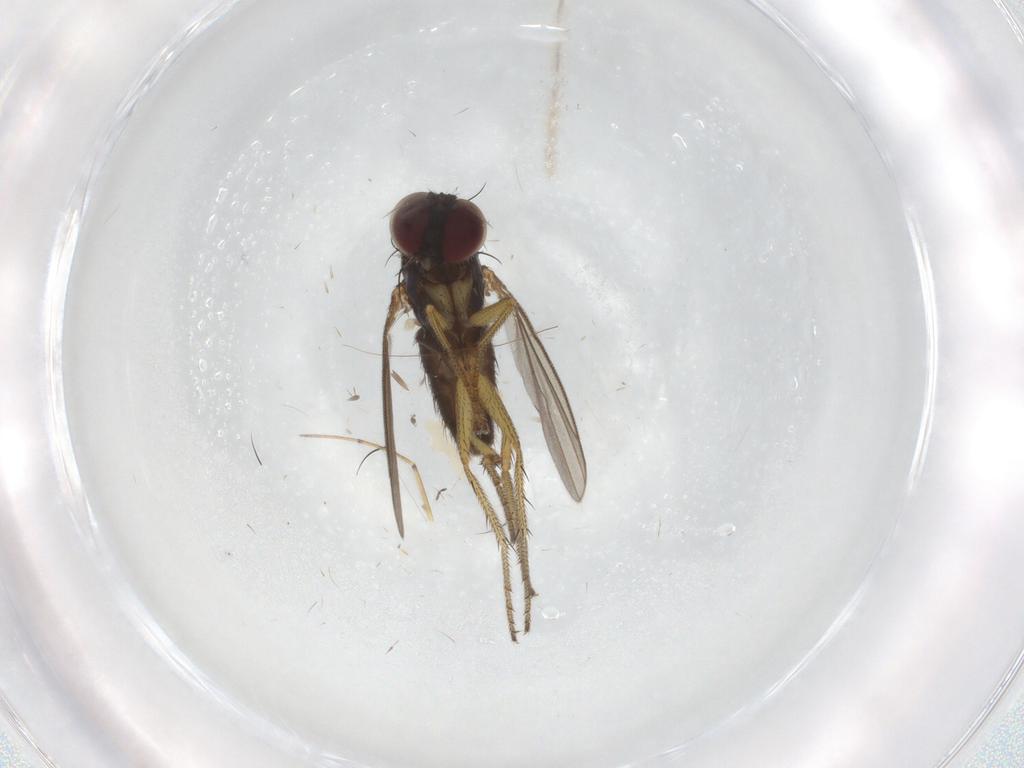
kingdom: Animalia
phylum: Arthropoda
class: Insecta
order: Diptera
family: Chironomidae
